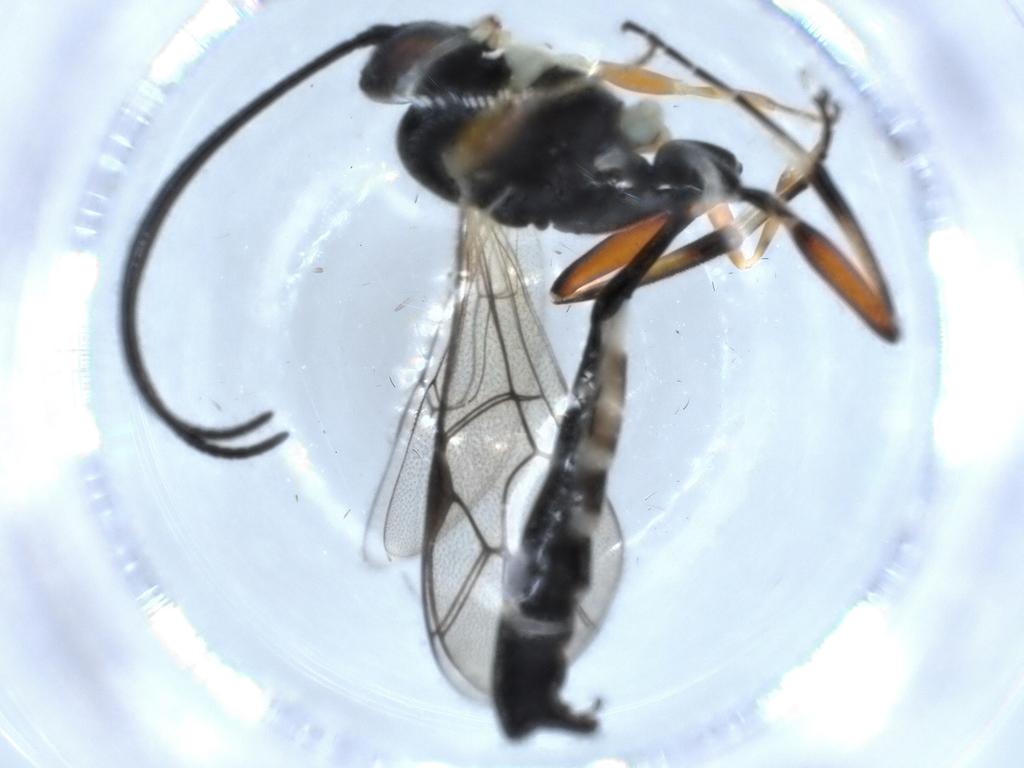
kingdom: Animalia
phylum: Arthropoda
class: Insecta
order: Hymenoptera
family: Ichneumonidae
